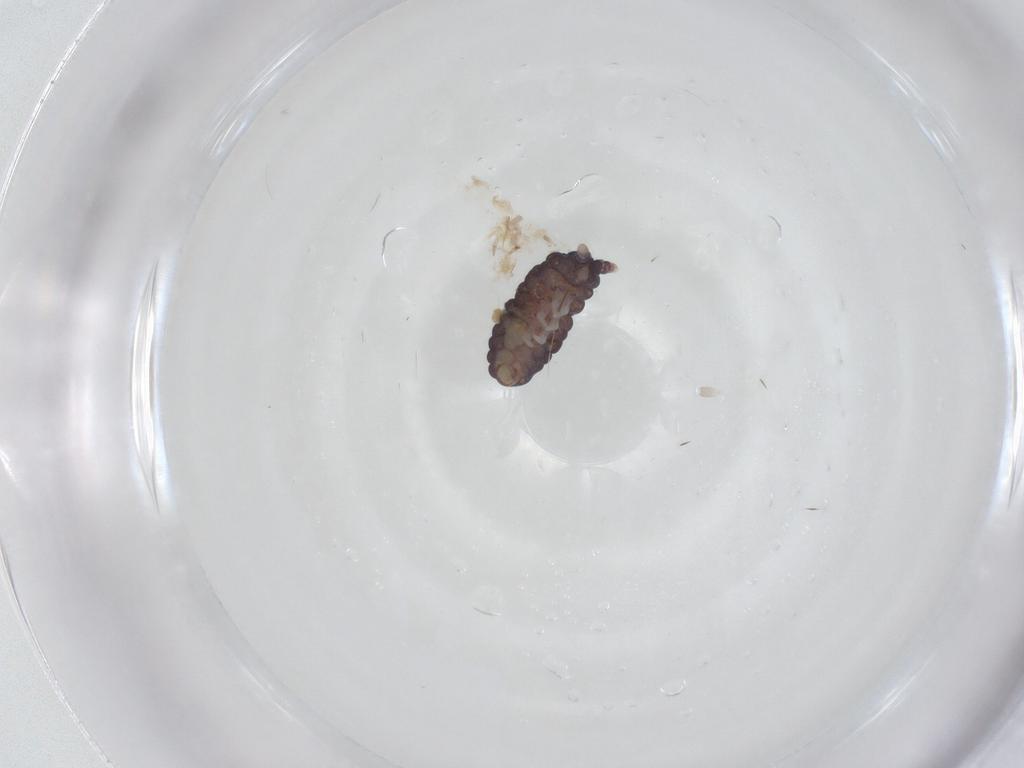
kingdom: Animalia
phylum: Arthropoda
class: Collembola
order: Poduromorpha
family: Neanuridae
